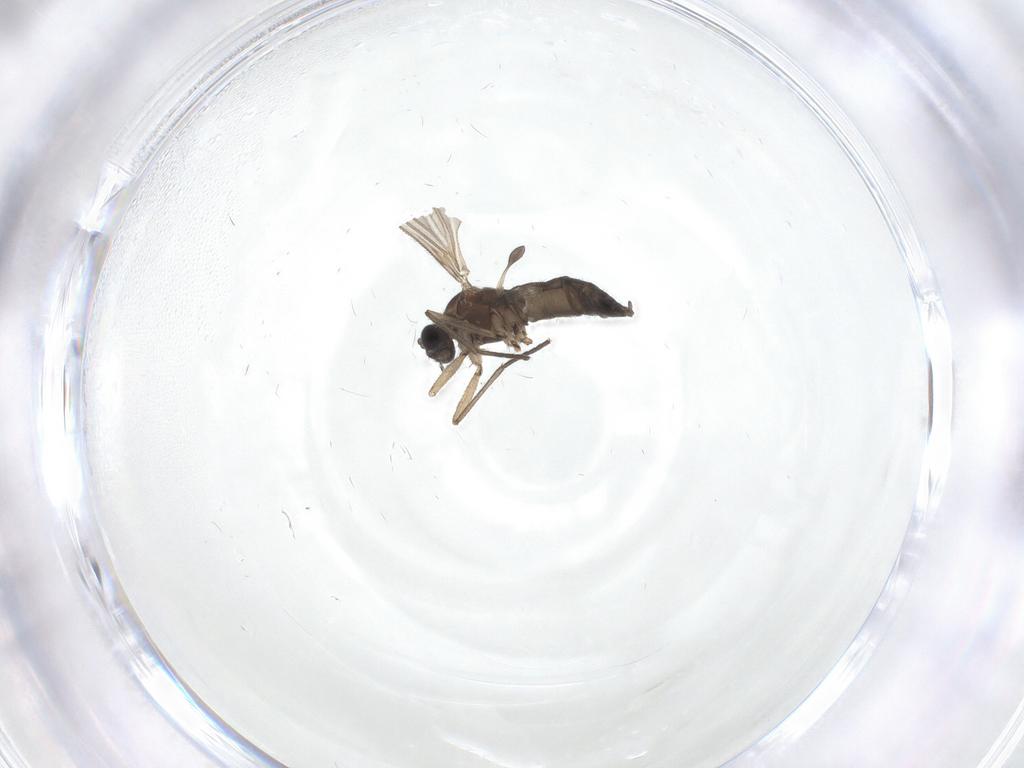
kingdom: Animalia
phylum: Arthropoda
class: Insecta
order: Diptera
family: Sciaridae
